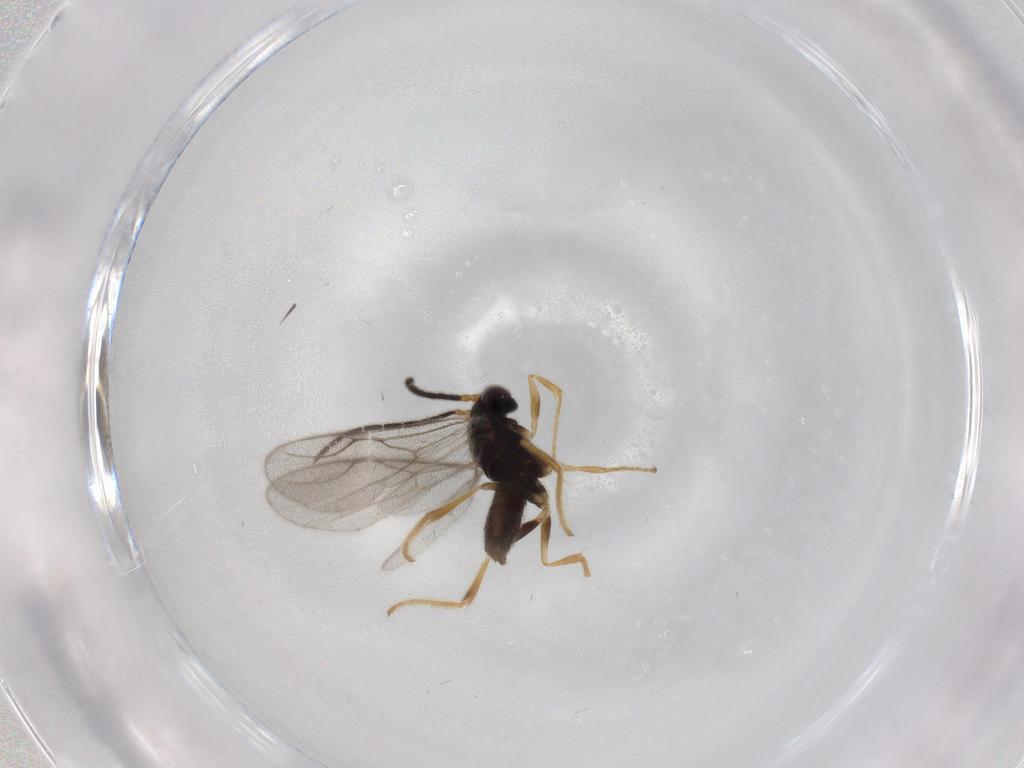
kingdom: Animalia
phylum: Arthropoda
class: Insecta
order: Hymenoptera
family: Dryinidae
